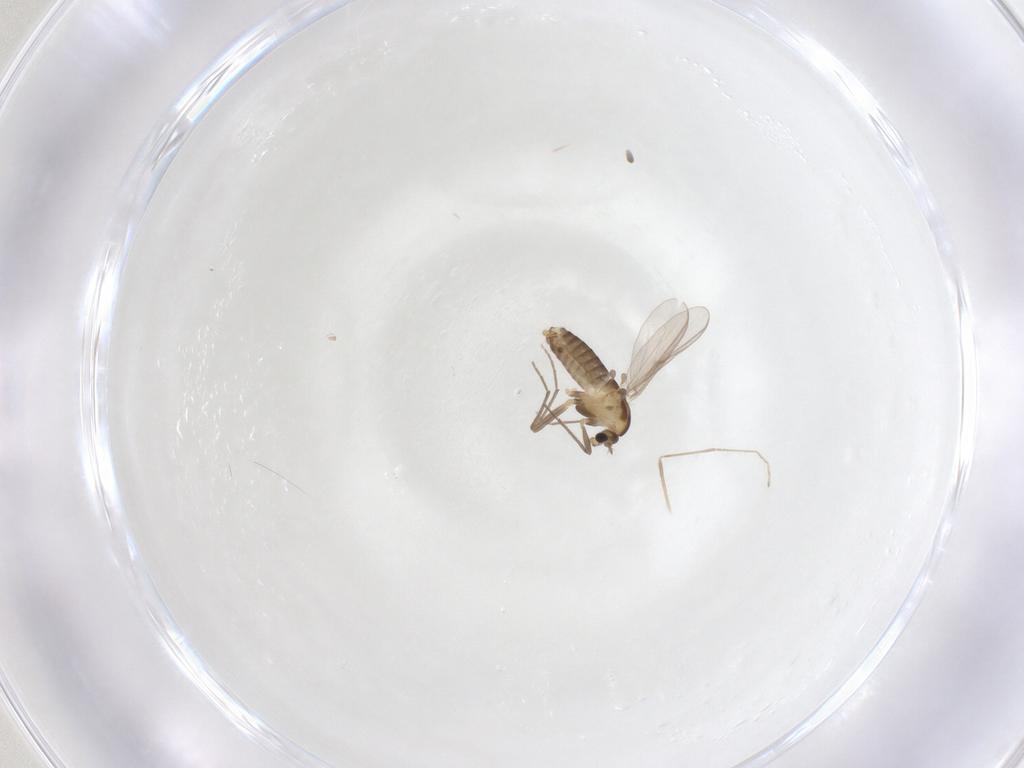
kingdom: Animalia
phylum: Arthropoda
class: Insecta
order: Diptera
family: Chironomidae
